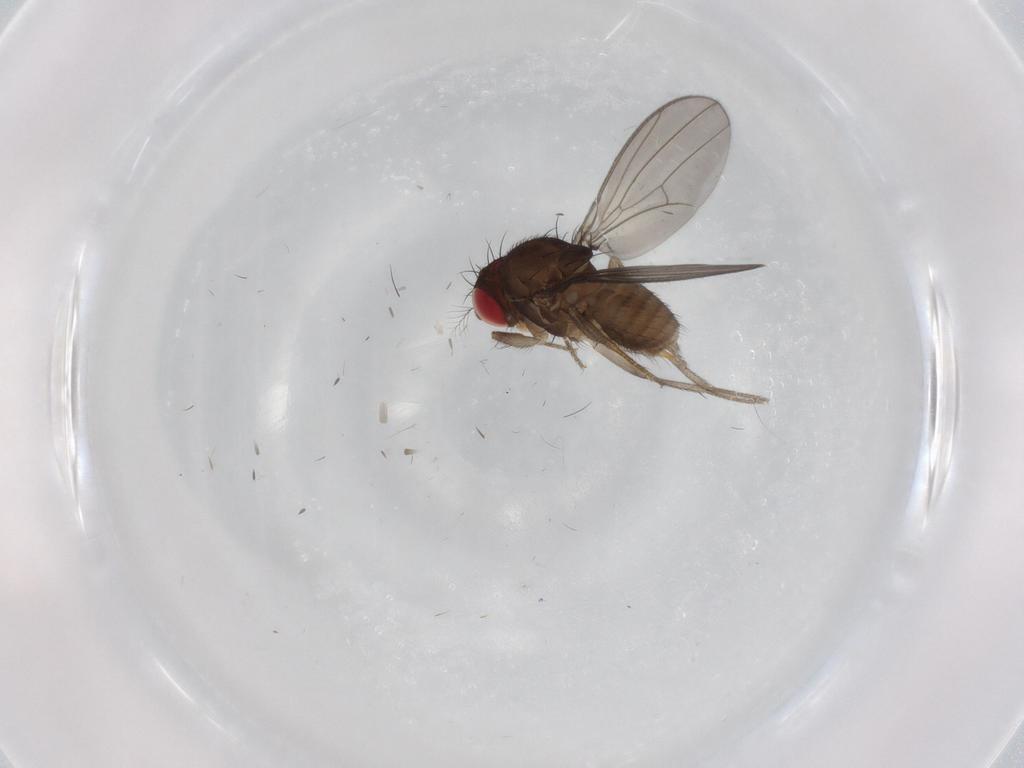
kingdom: Animalia
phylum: Arthropoda
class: Insecta
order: Diptera
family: Drosophilidae
